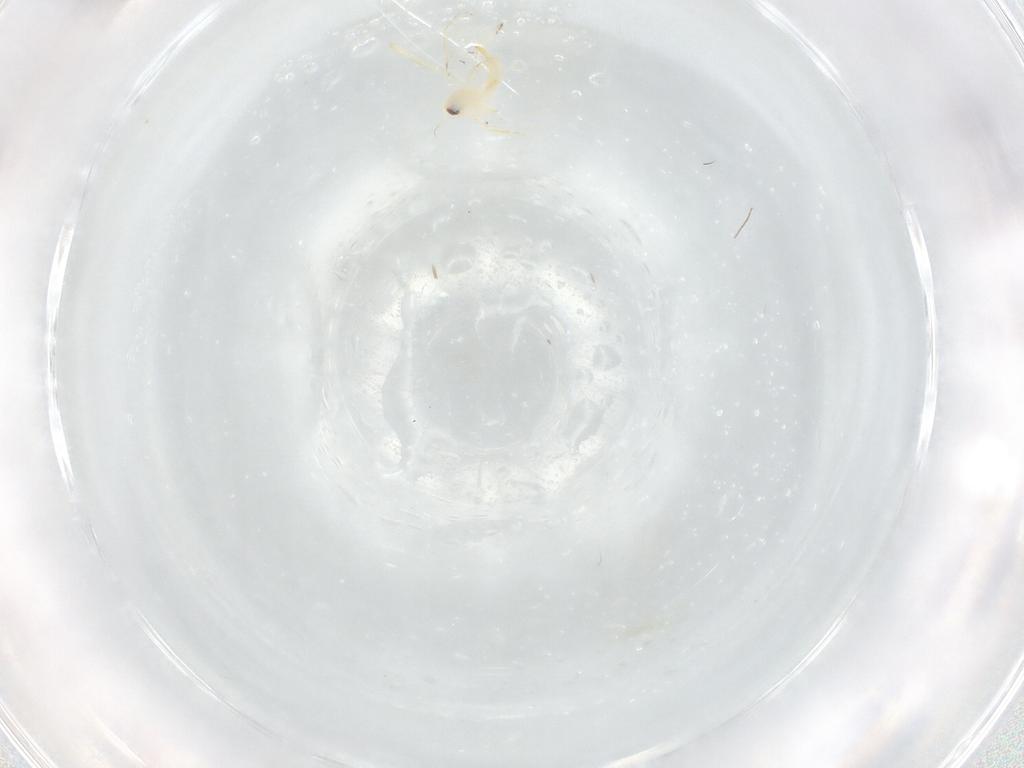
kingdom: Animalia
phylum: Arthropoda
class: Insecta
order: Hemiptera
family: Aleyrodidae
